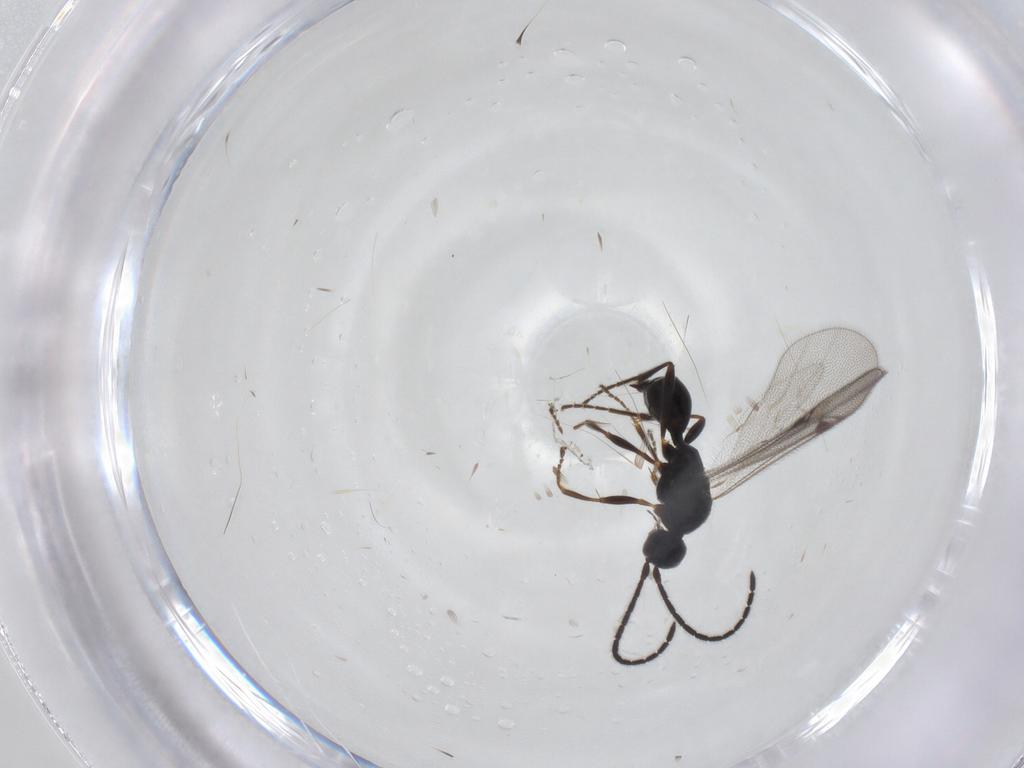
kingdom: Animalia
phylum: Arthropoda
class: Insecta
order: Hymenoptera
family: Proctotrupidae
